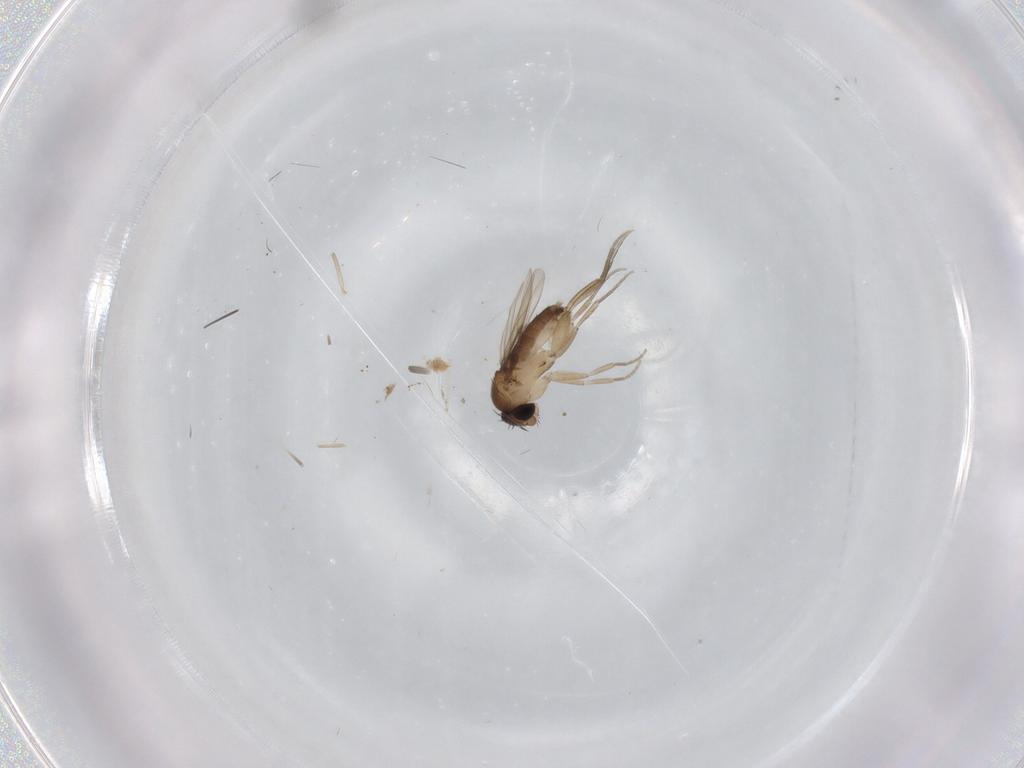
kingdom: Animalia
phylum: Arthropoda
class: Insecta
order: Diptera
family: Phoridae
